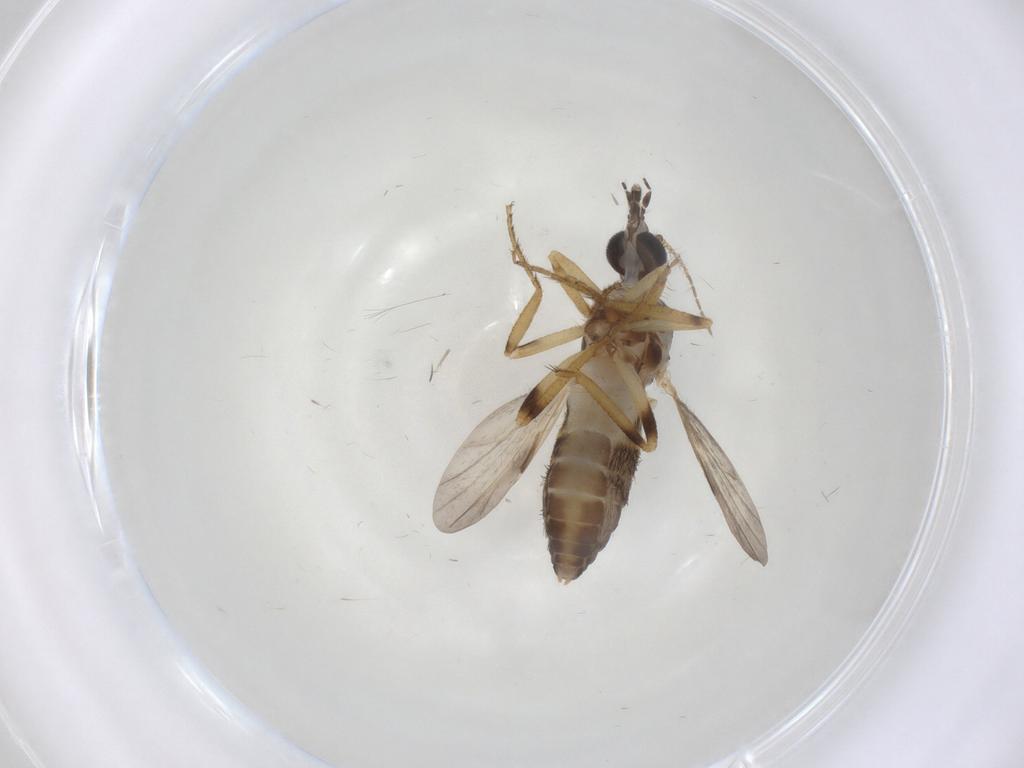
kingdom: Animalia
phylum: Arthropoda
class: Insecta
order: Diptera
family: Ceratopogonidae
